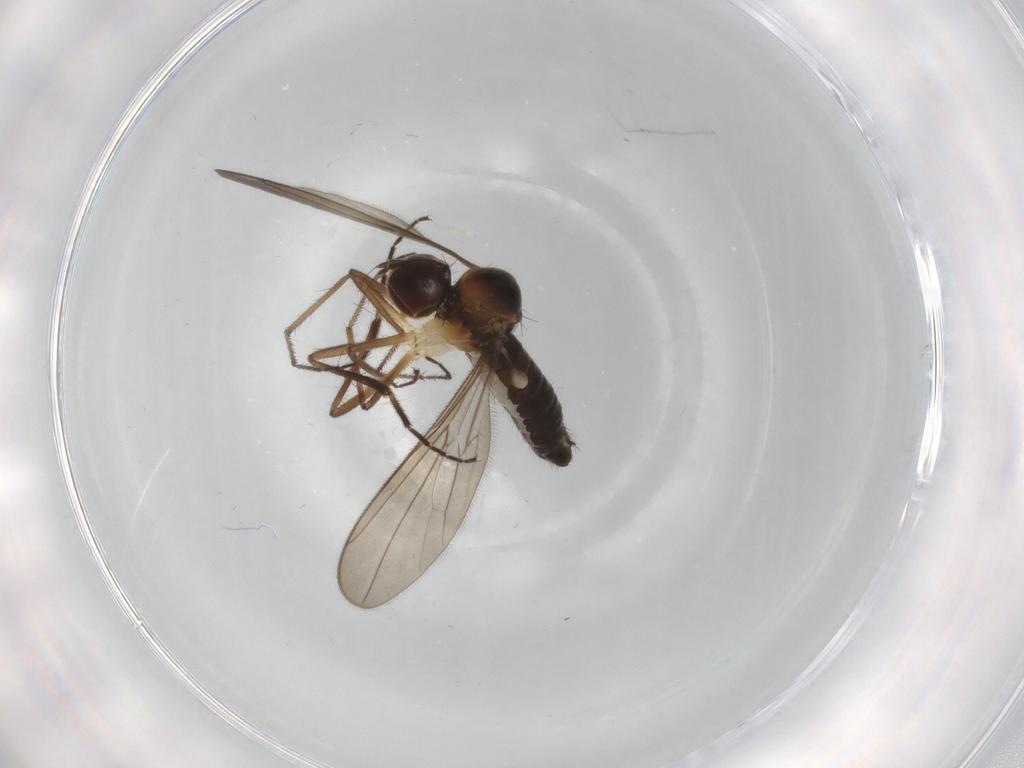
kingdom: Animalia
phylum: Arthropoda
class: Insecta
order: Diptera
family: Hybotidae
